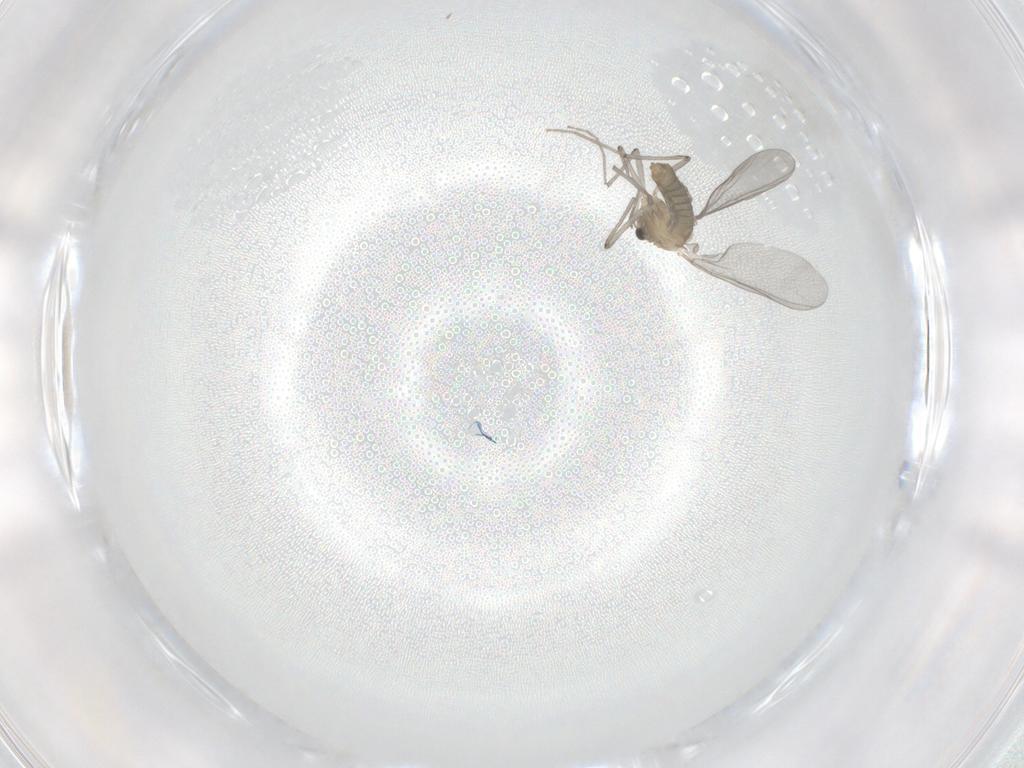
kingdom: Animalia
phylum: Arthropoda
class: Insecta
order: Diptera
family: Chironomidae
